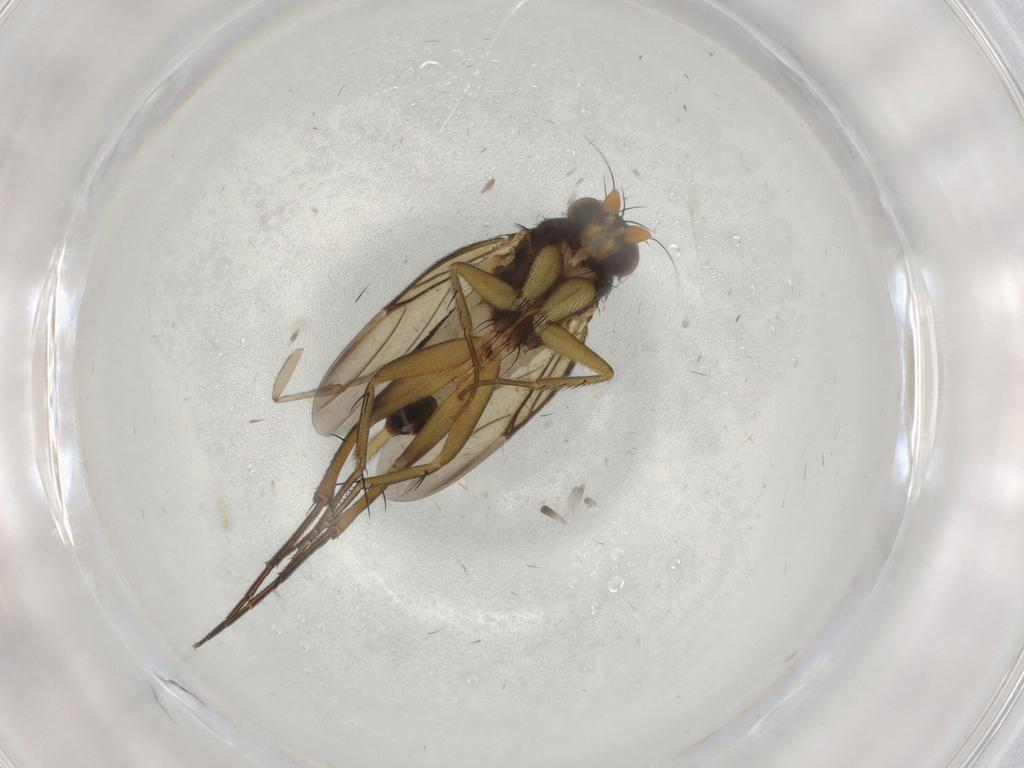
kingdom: Animalia
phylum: Arthropoda
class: Insecta
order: Diptera
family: Phoridae
